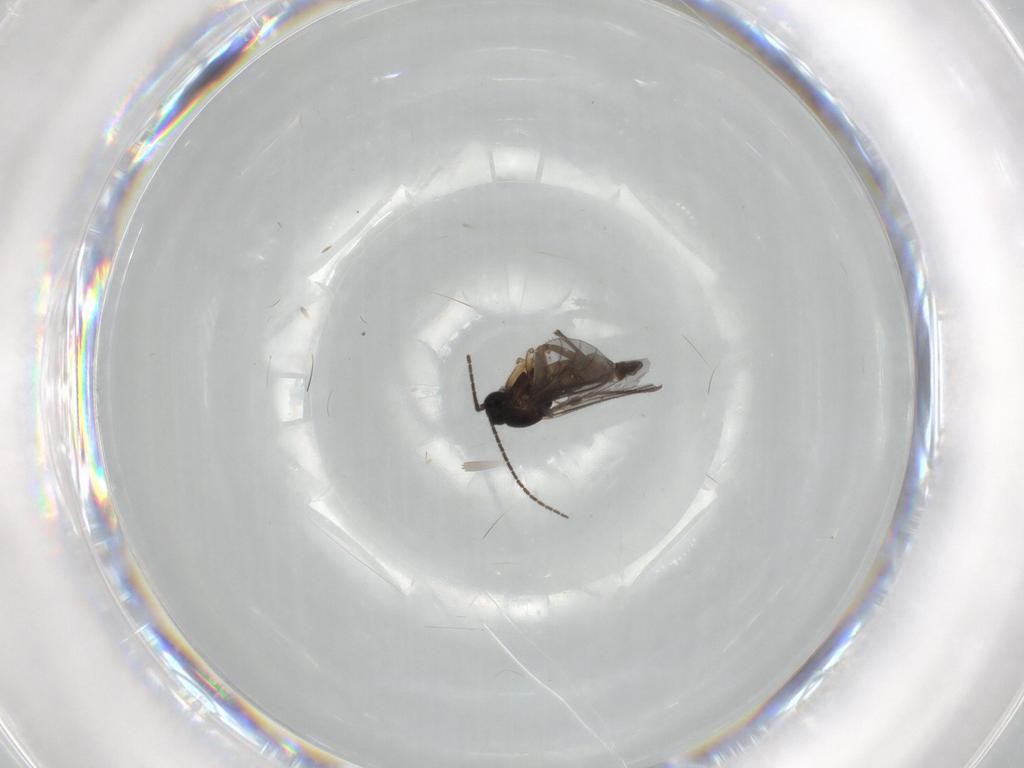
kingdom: Animalia
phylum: Arthropoda
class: Insecta
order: Diptera
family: Sciaridae
